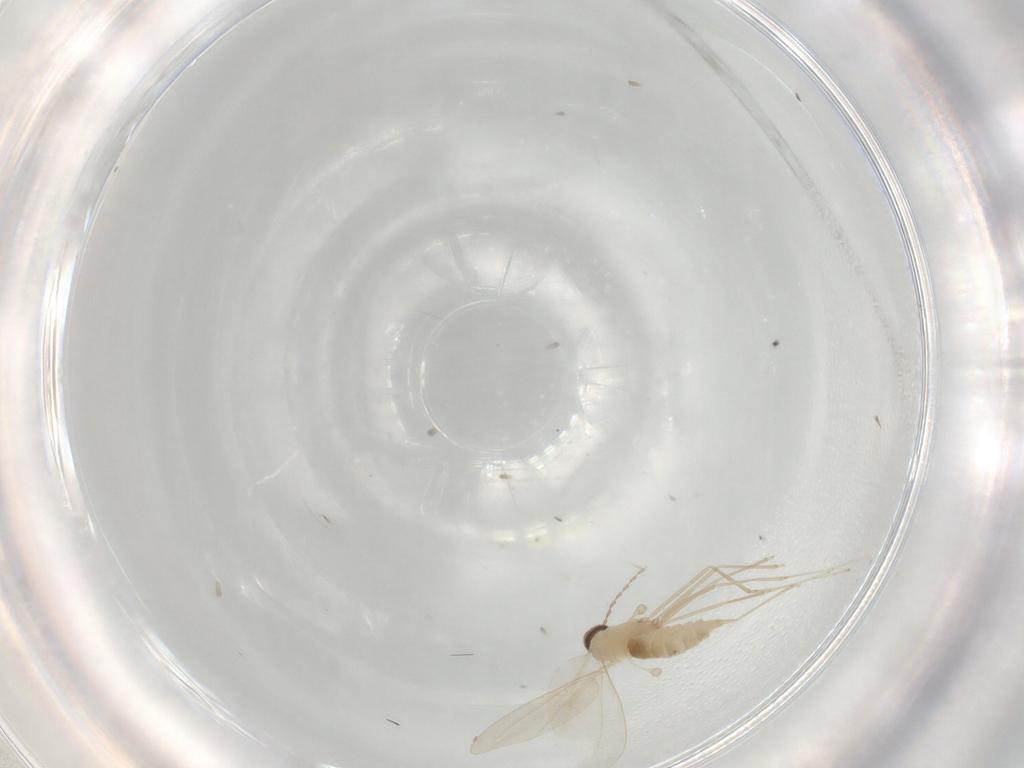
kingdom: Animalia
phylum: Arthropoda
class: Insecta
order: Diptera
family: Cecidomyiidae
